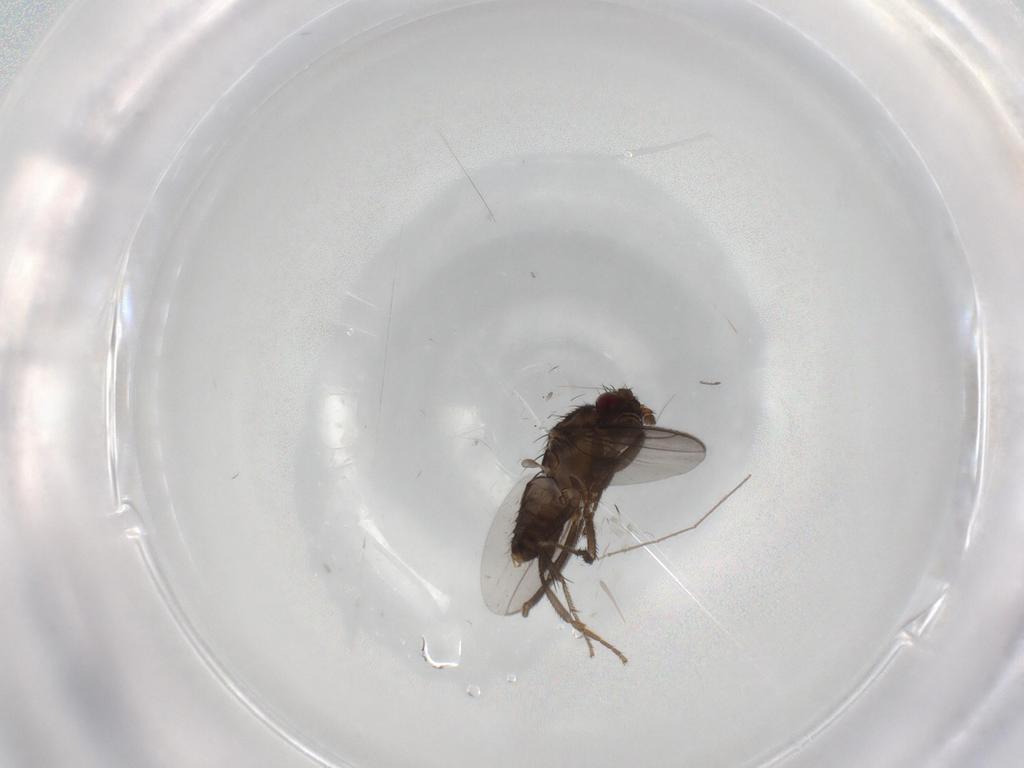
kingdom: Animalia
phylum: Arthropoda
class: Insecta
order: Diptera
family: Sphaeroceridae
